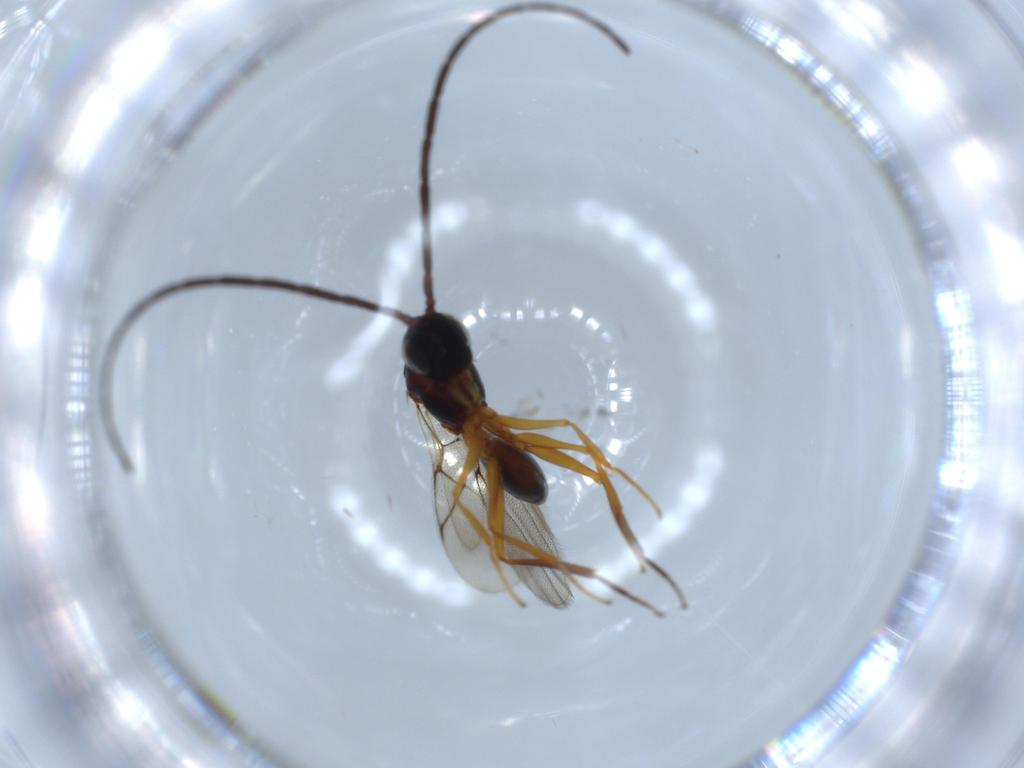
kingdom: Animalia
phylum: Arthropoda
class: Insecta
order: Hymenoptera
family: Figitidae
